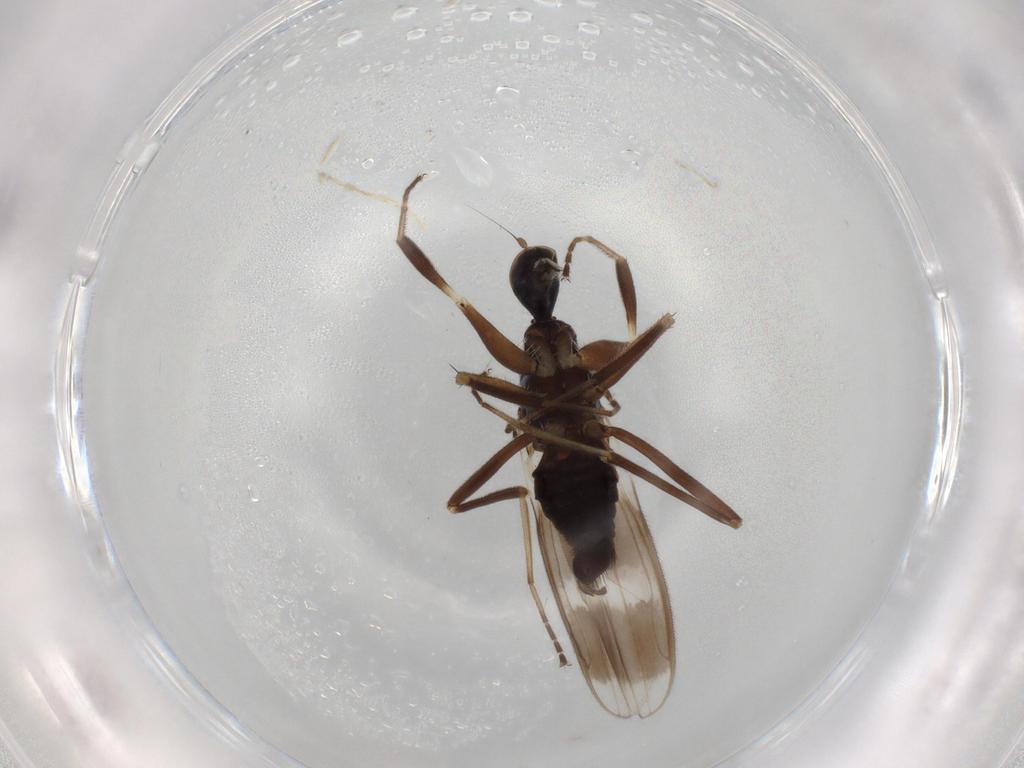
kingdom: Animalia
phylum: Arthropoda
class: Insecta
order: Diptera
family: Hybotidae
